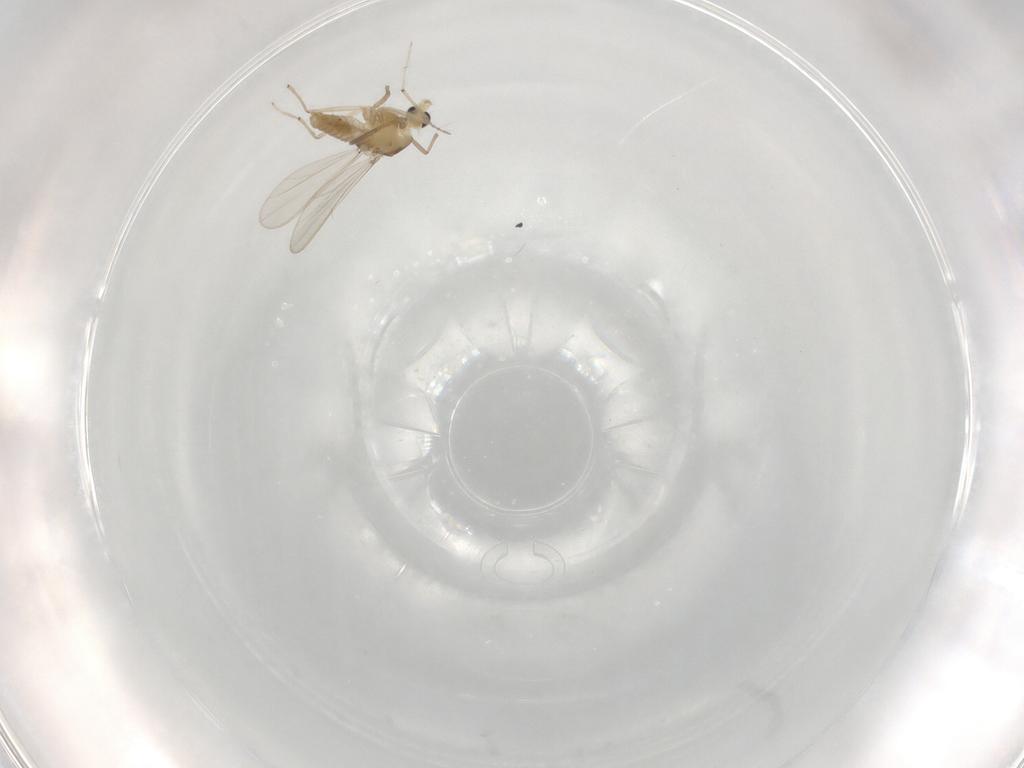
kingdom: Animalia
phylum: Arthropoda
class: Insecta
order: Diptera
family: Chironomidae
